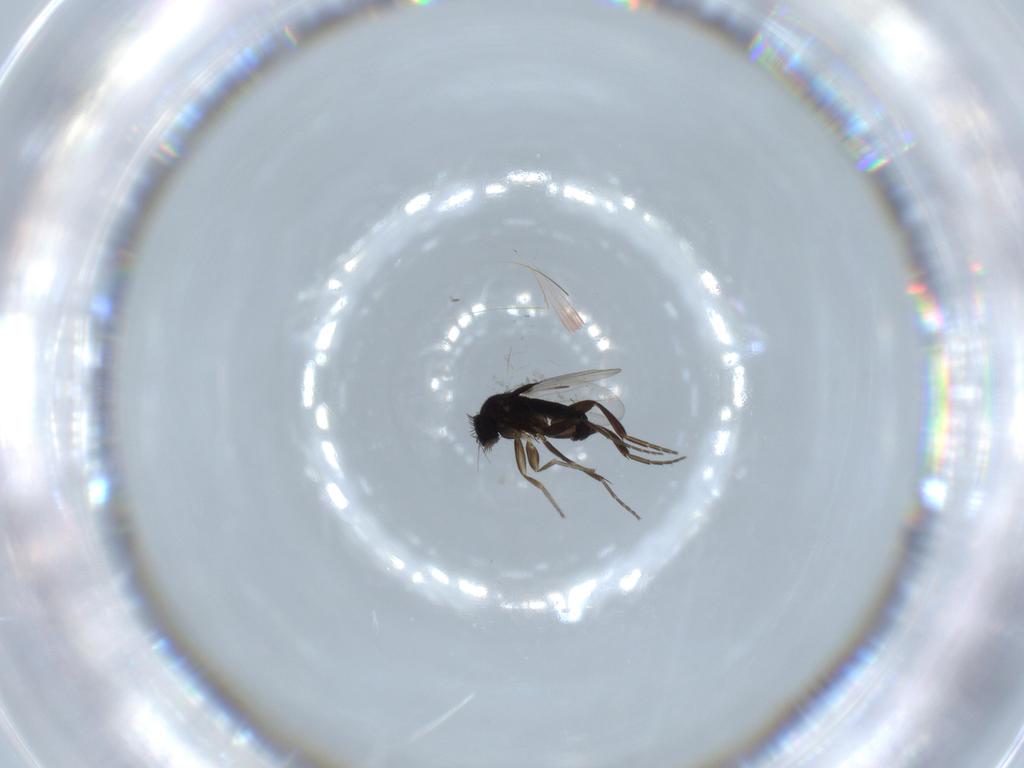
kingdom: Animalia
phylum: Arthropoda
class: Insecta
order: Diptera
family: Phoridae
